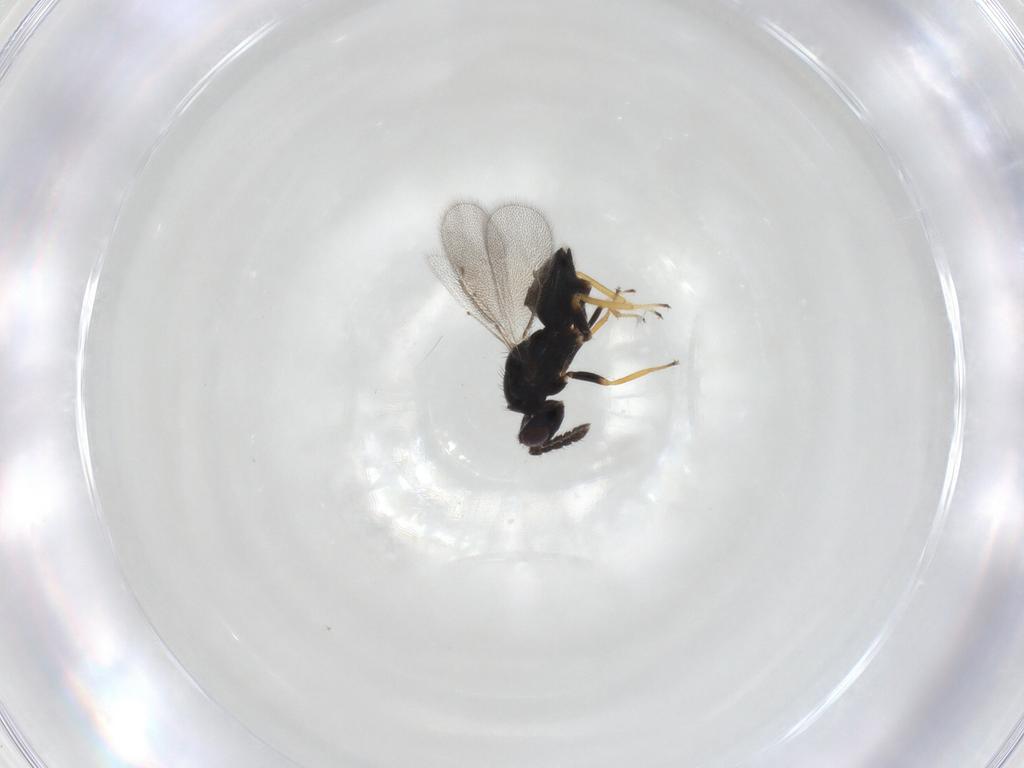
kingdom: Animalia
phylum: Arthropoda
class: Insecta
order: Hymenoptera
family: Eulophidae
